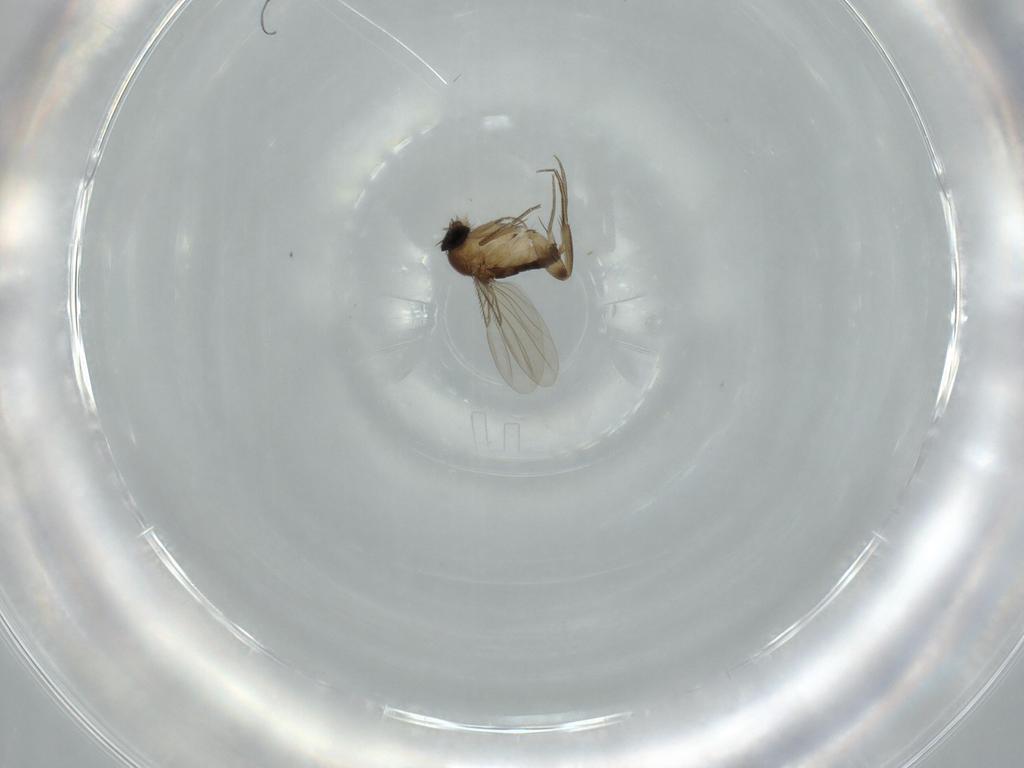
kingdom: Animalia
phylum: Arthropoda
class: Insecta
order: Diptera
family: Phoridae
